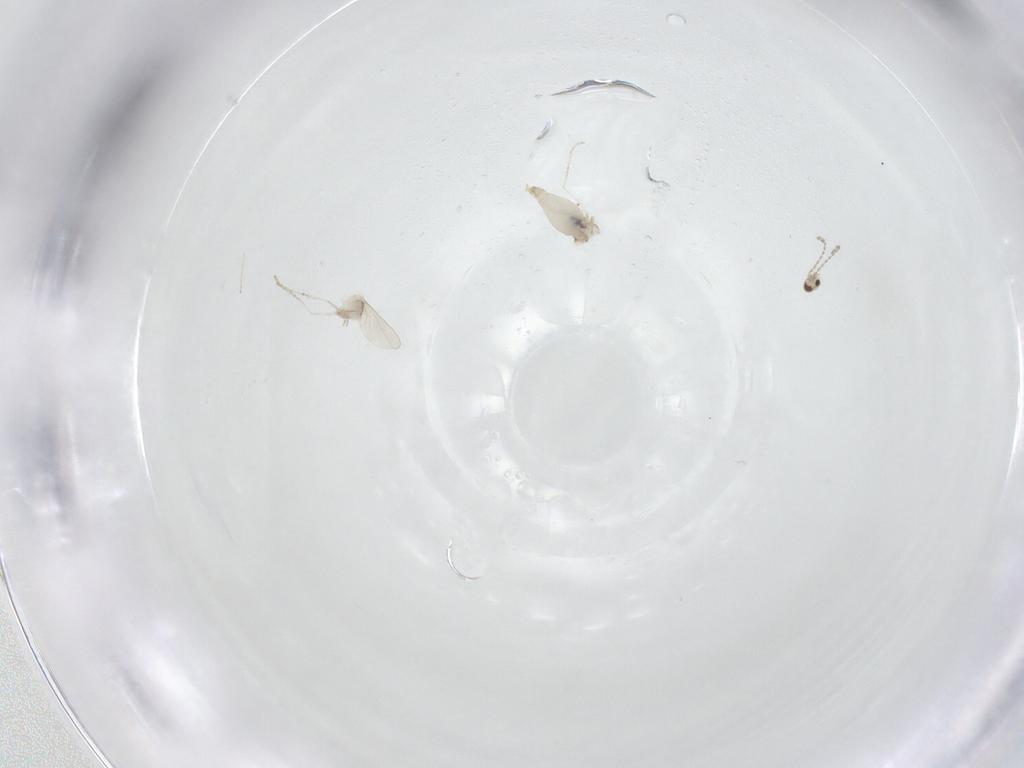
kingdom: Animalia
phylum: Arthropoda
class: Insecta
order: Diptera
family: Cecidomyiidae
